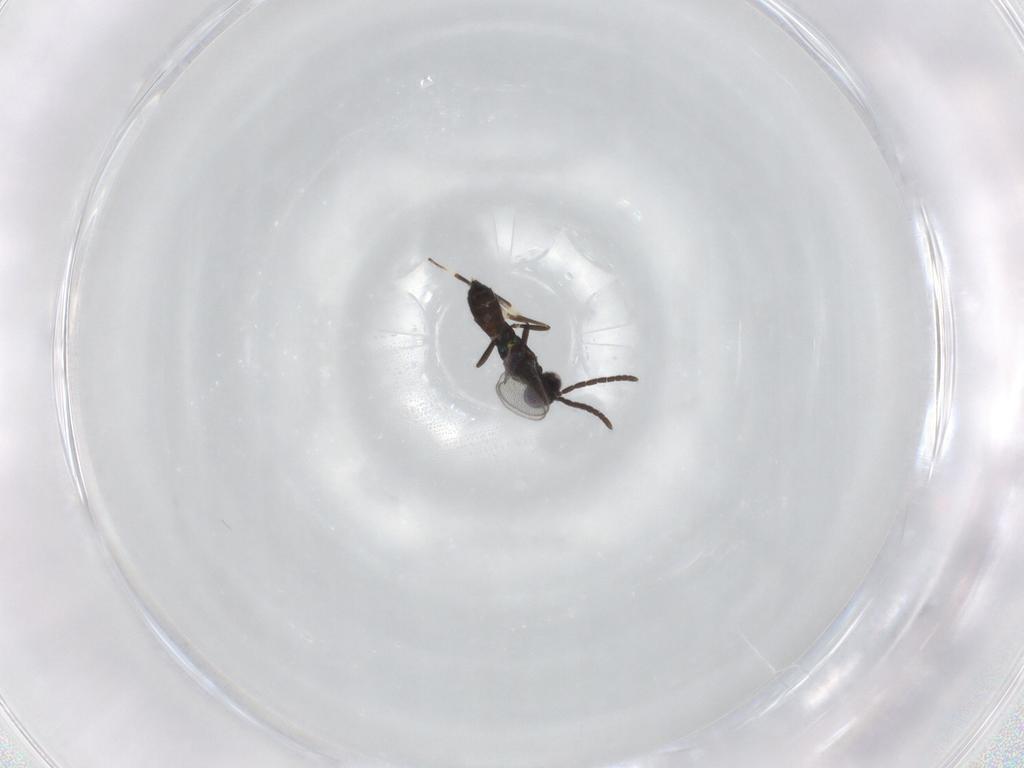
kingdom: Animalia
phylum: Arthropoda
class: Insecta
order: Hymenoptera
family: Eupelmidae
